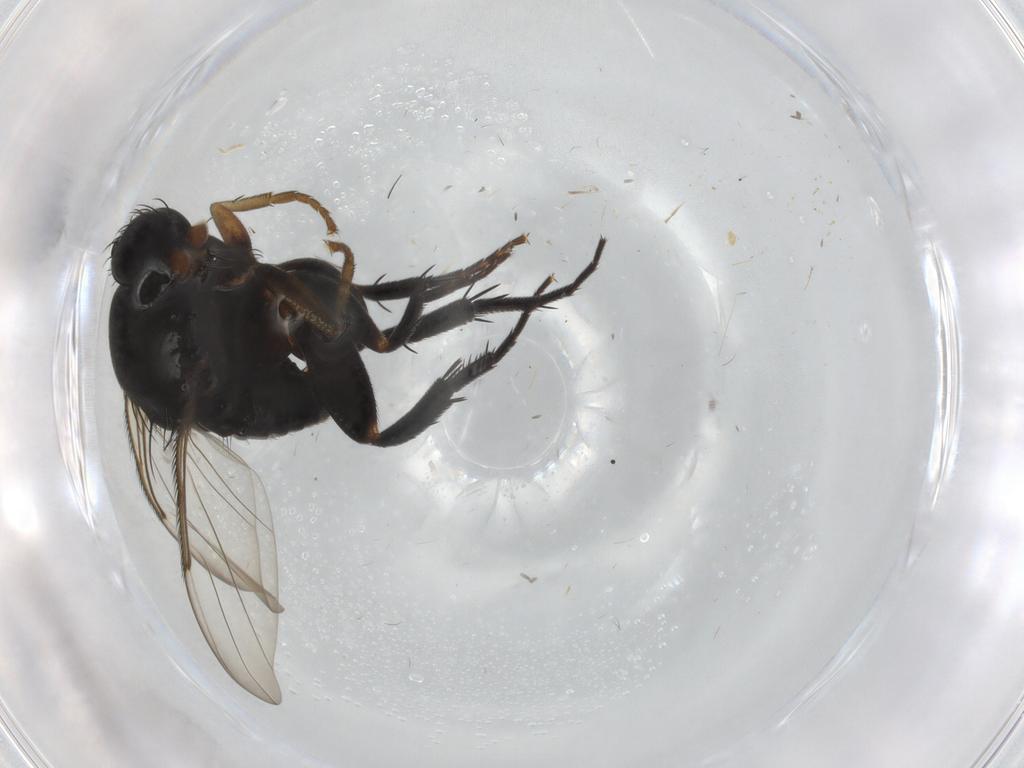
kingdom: Animalia
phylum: Arthropoda
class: Insecta
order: Diptera
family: Phoridae
